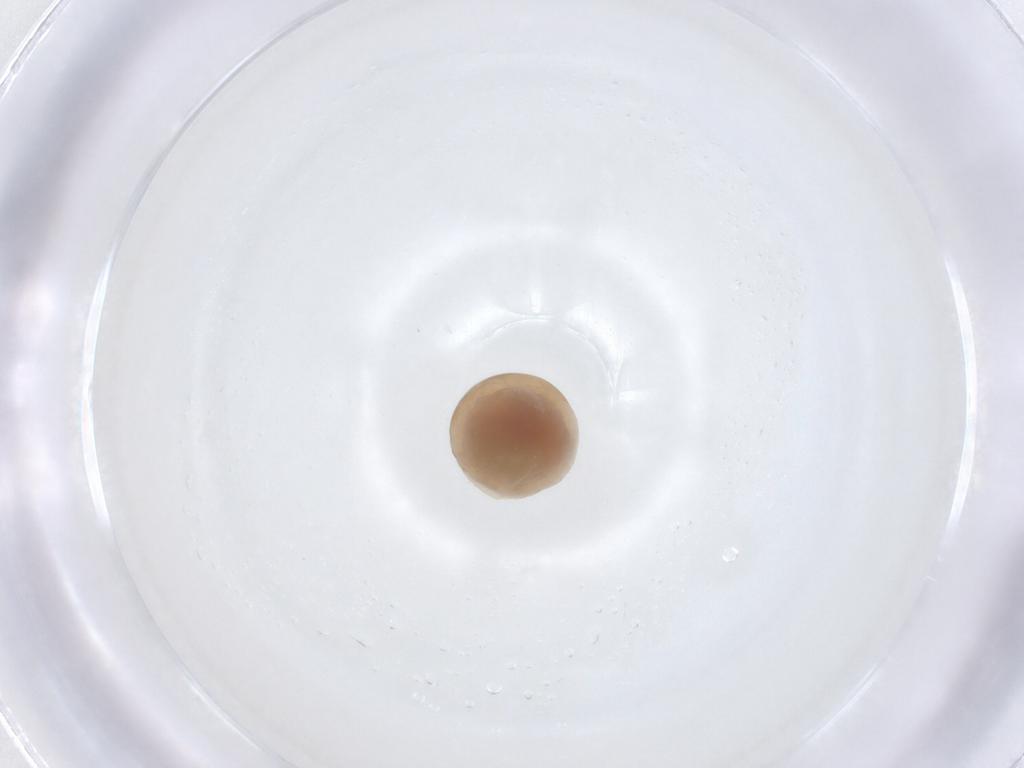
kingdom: Animalia
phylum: Arthropoda
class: Insecta
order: Hymenoptera
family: Scelionidae
